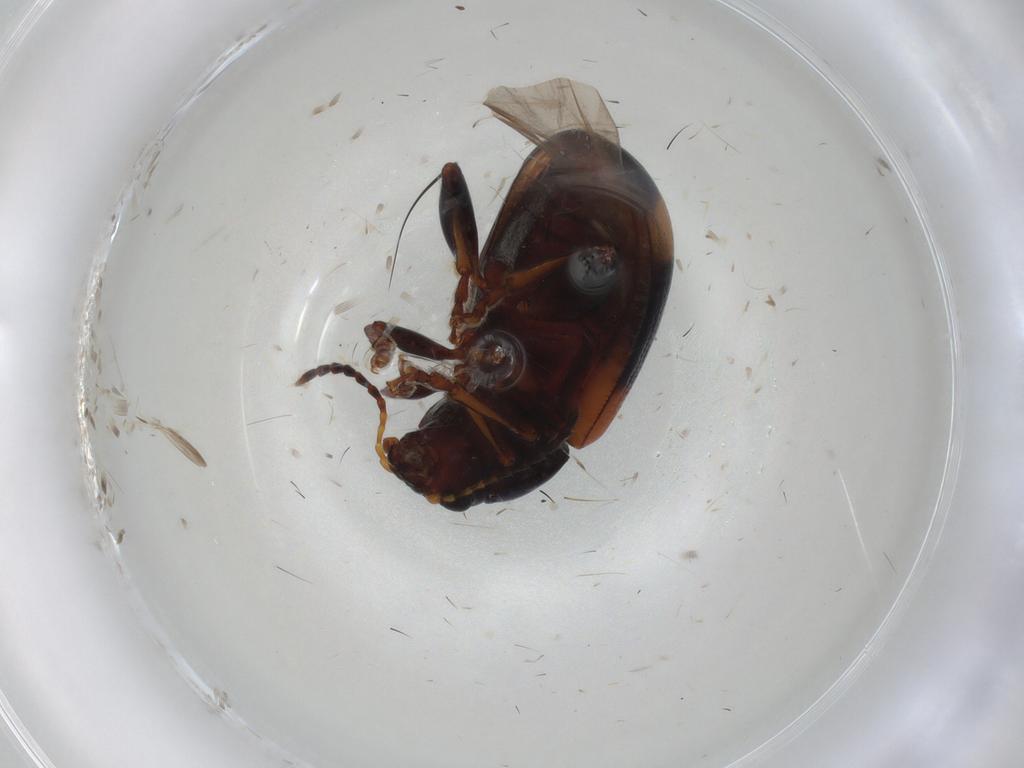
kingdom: Animalia
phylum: Arthropoda
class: Insecta
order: Coleoptera
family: Chrysomelidae
